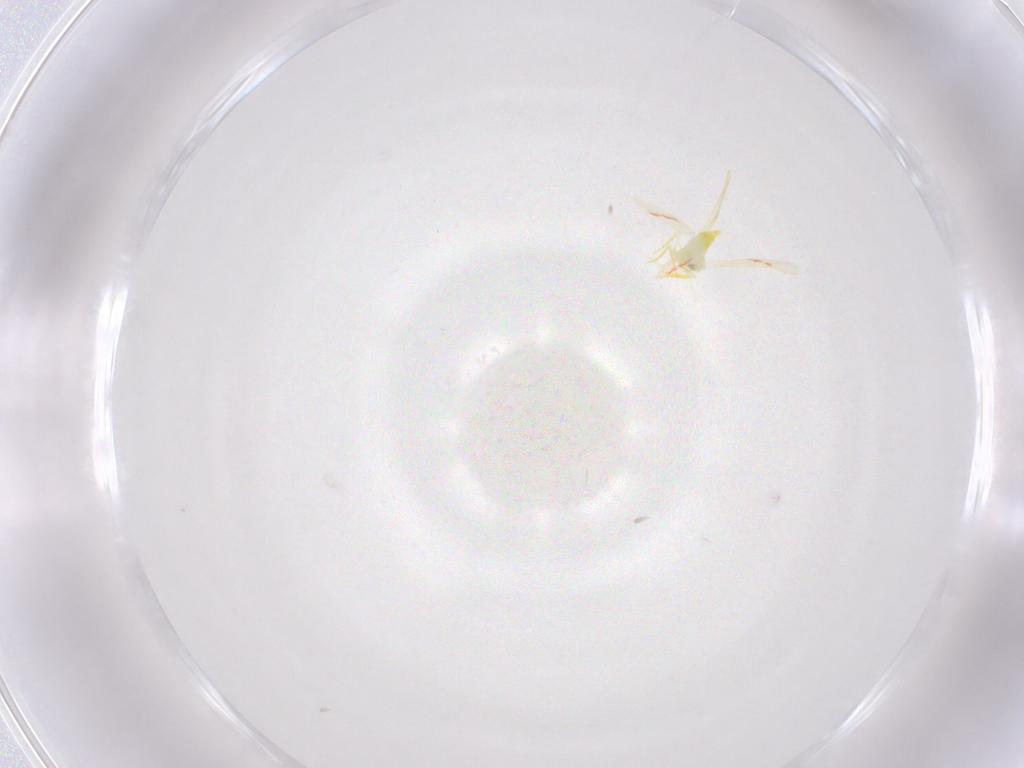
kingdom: Animalia
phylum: Arthropoda
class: Insecta
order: Hemiptera
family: Aleyrodidae
